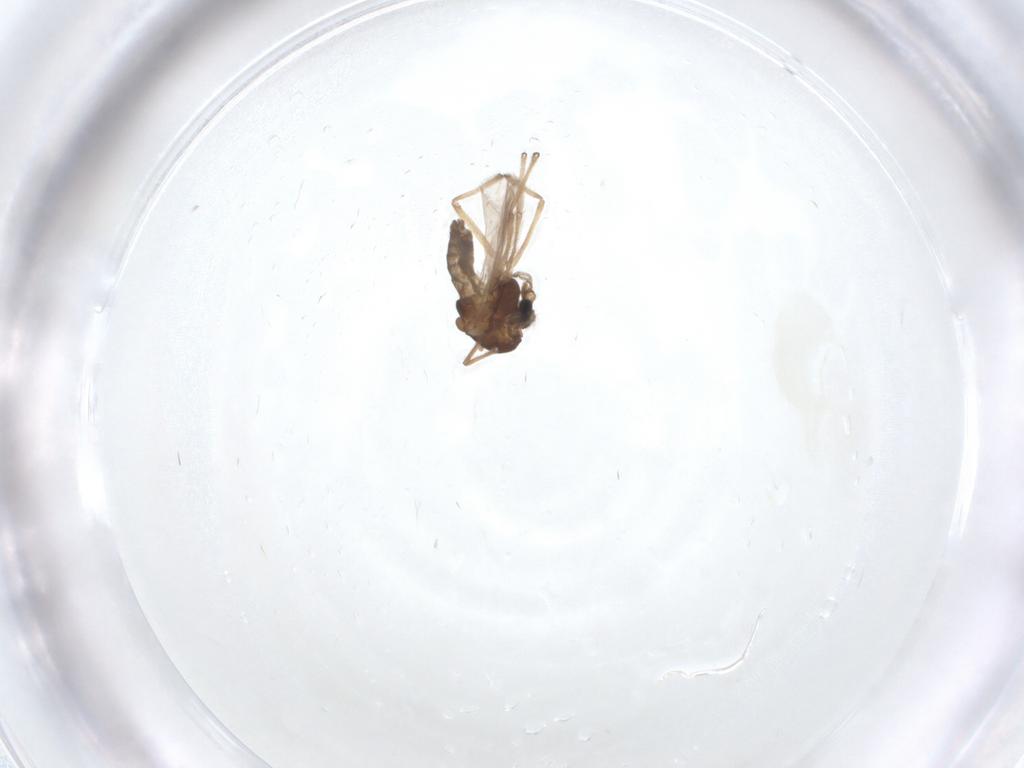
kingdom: Animalia
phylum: Arthropoda
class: Insecta
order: Diptera
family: Chironomidae
